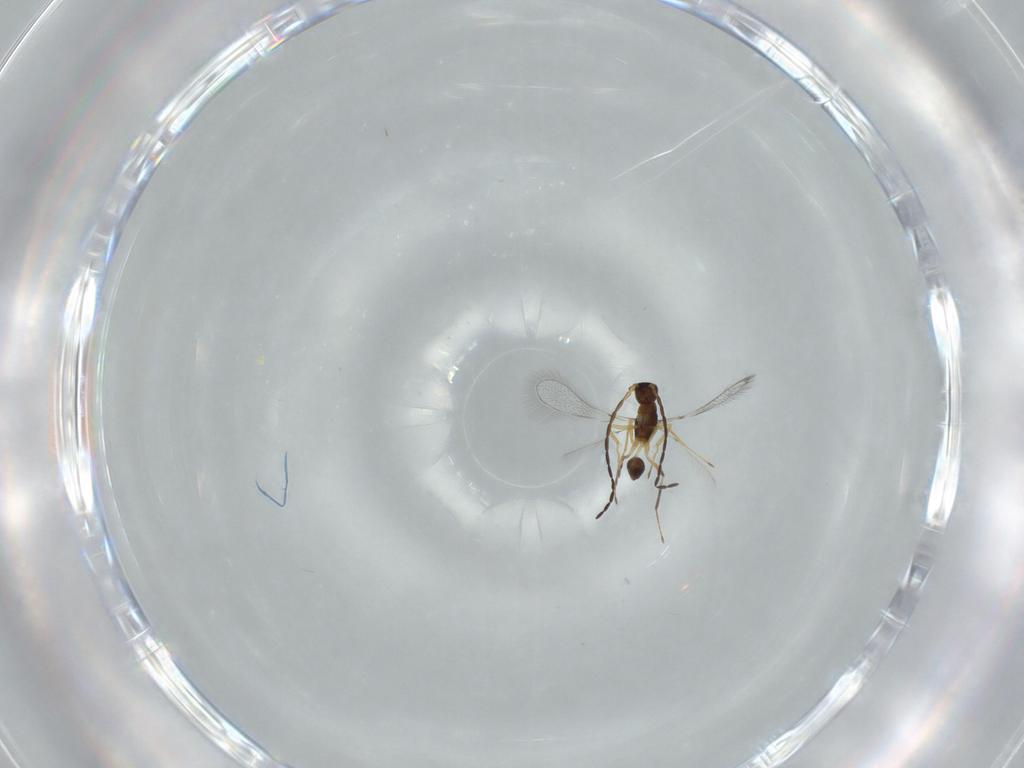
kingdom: Animalia
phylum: Arthropoda
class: Insecta
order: Hymenoptera
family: Mymaridae
